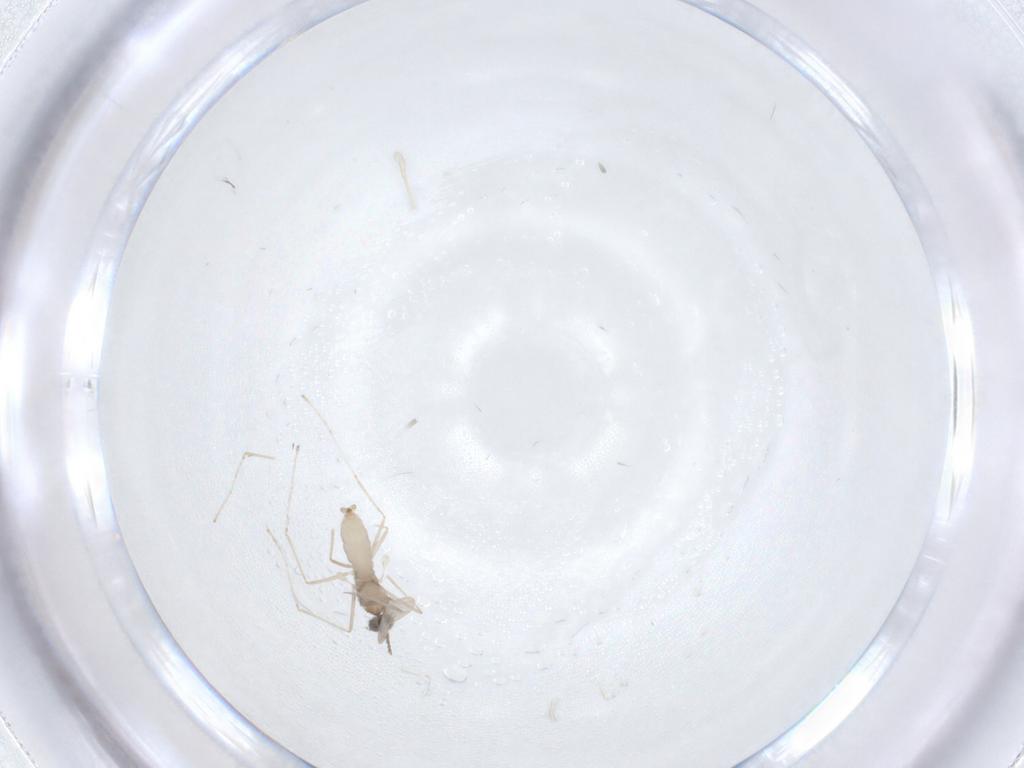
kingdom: Animalia
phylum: Arthropoda
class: Insecta
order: Diptera
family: Cecidomyiidae
